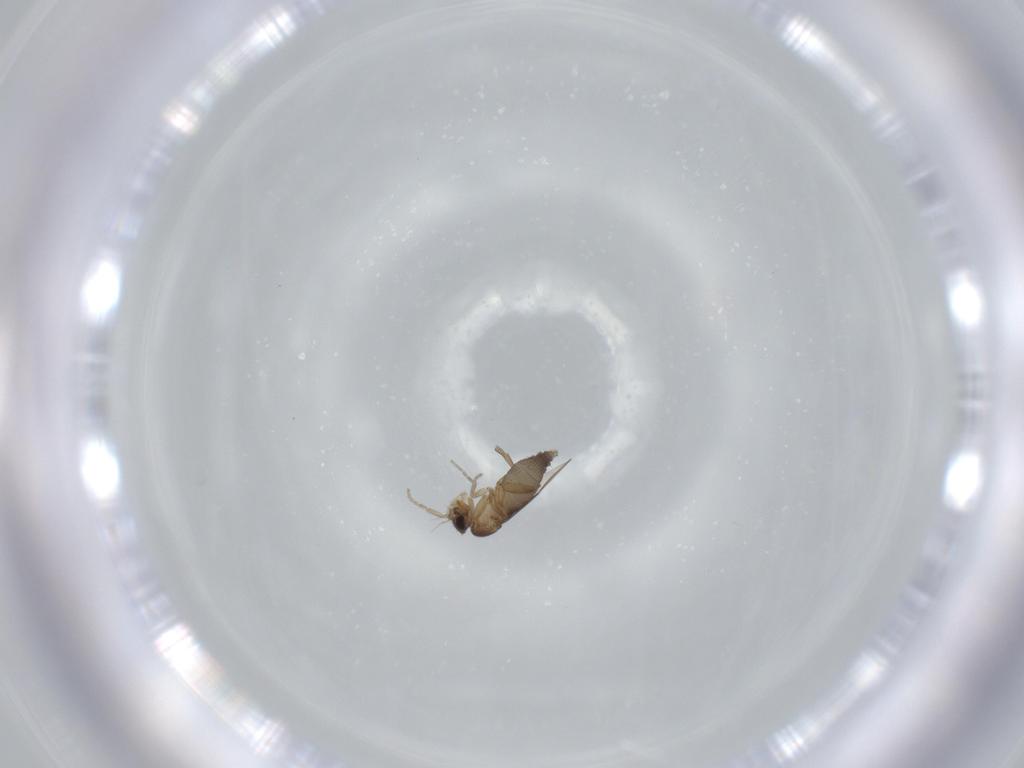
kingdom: Animalia
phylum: Arthropoda
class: Insecta
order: Diptera
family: Phoridae
